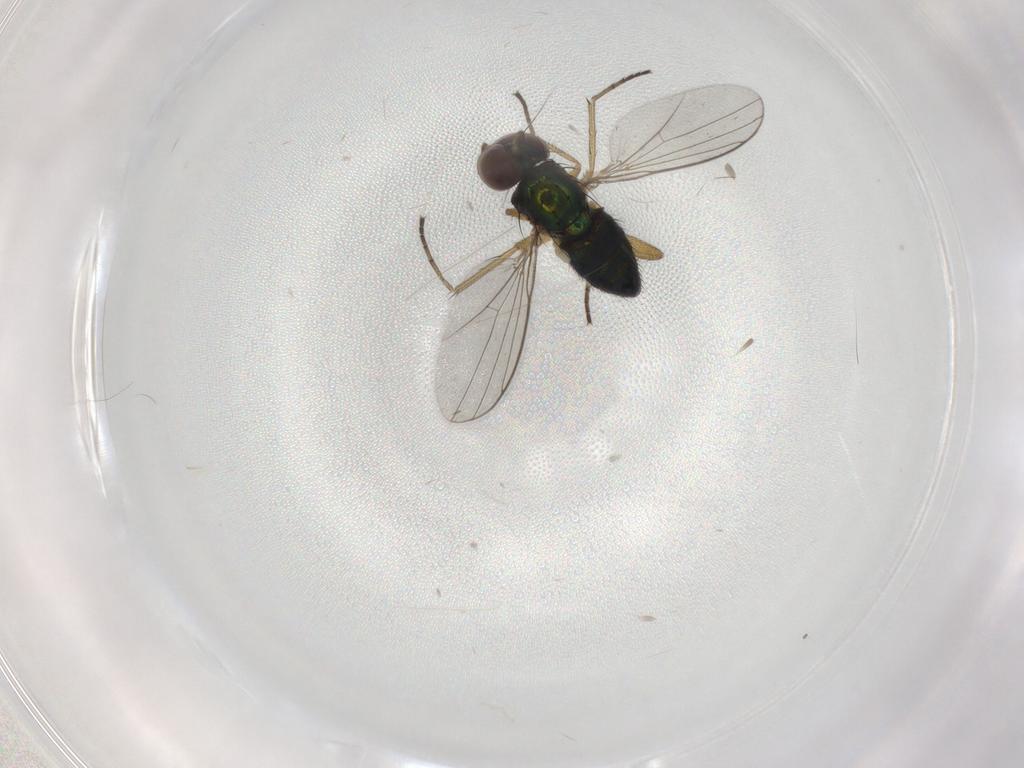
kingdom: Animalia
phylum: Arthropoda
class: Insecta
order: Diptera
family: Dolichopodidae
